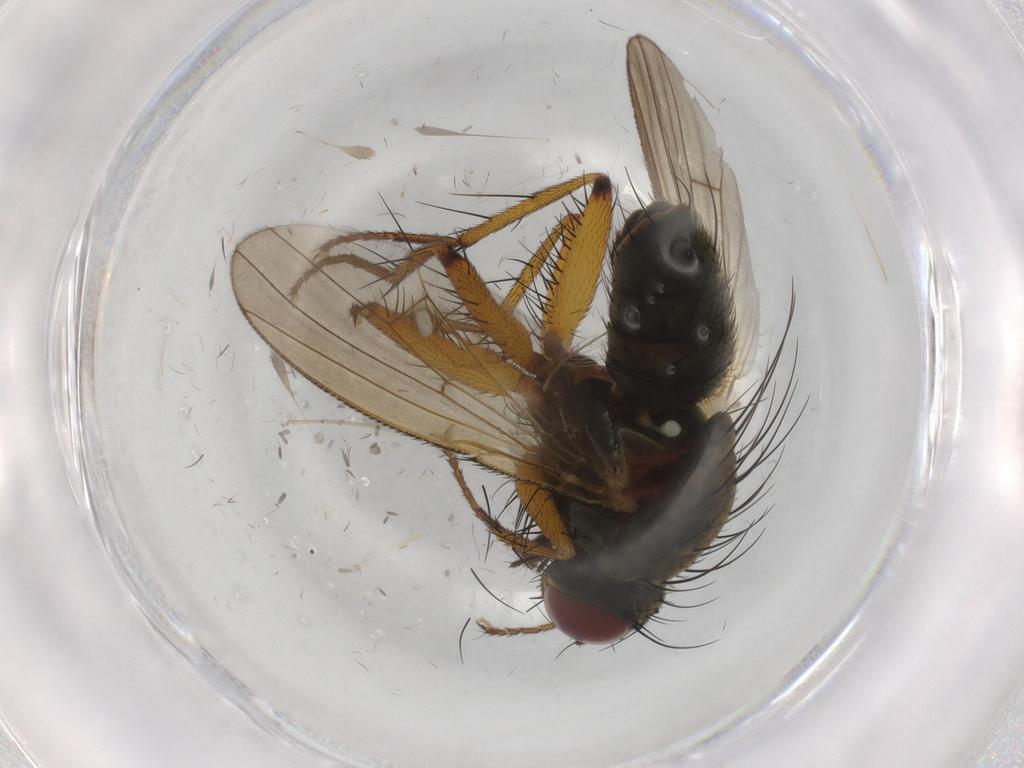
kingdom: Animalia
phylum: Arthropoda
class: Insecta
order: Diptera
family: Muscidae
